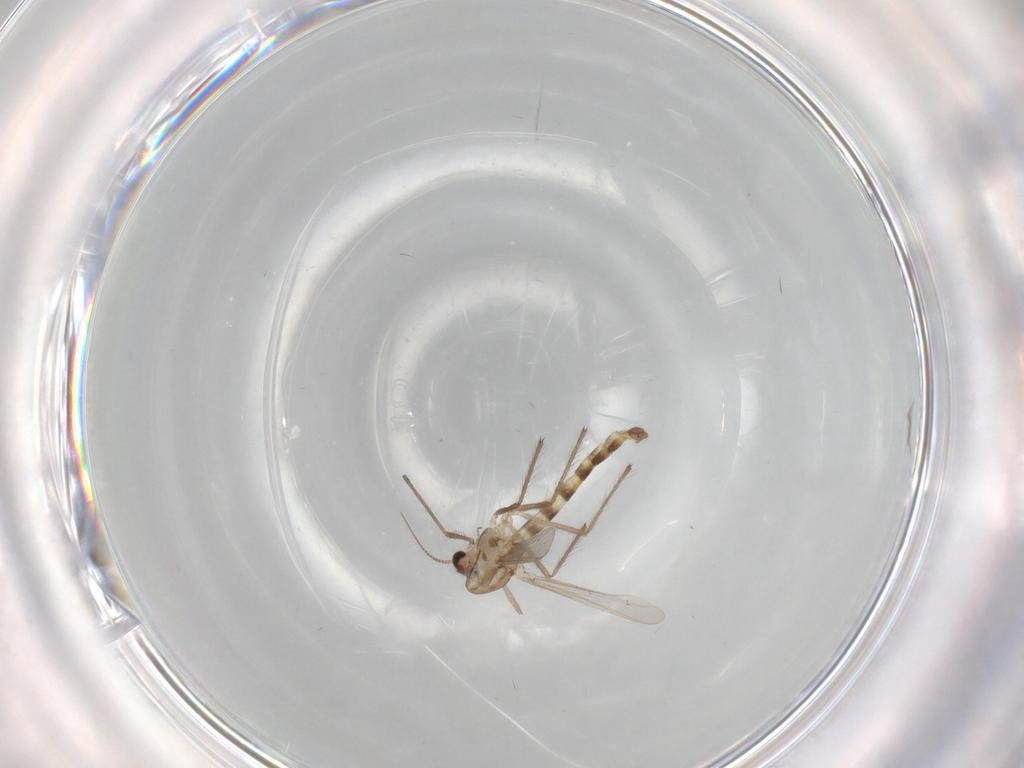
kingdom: Animalia
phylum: Arthropoda
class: Insecta
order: Diptera
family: Chironomidae
